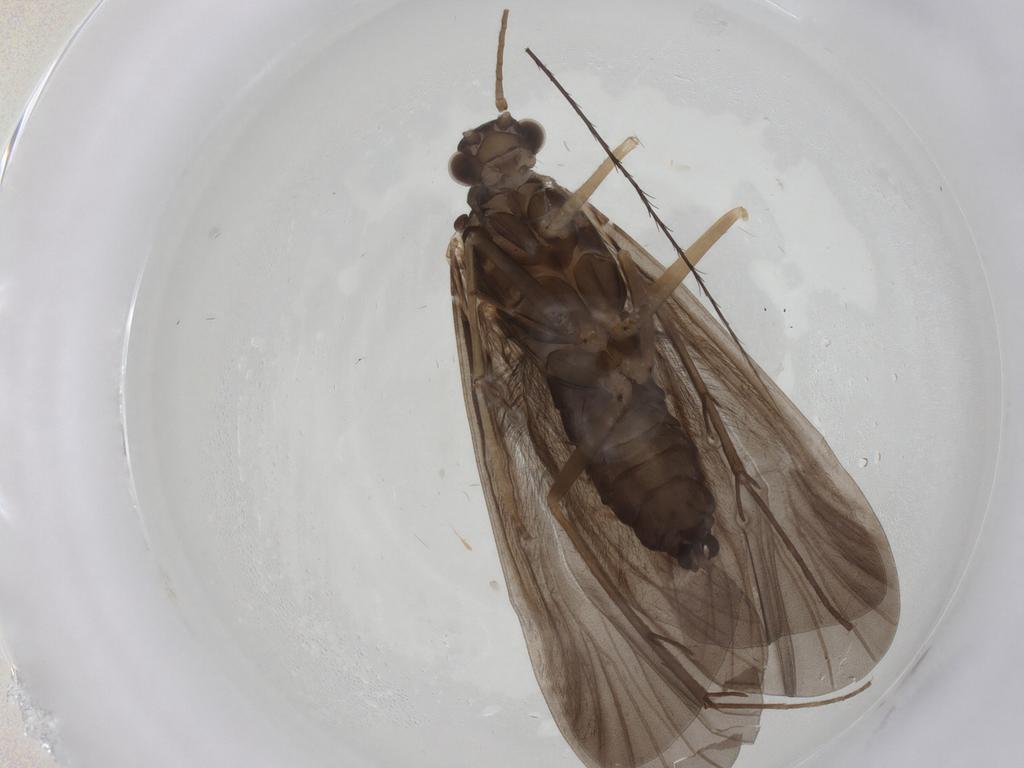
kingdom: Animalia
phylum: Arthropoda
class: Insecta
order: Trichoptera
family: Hydropsychidae
